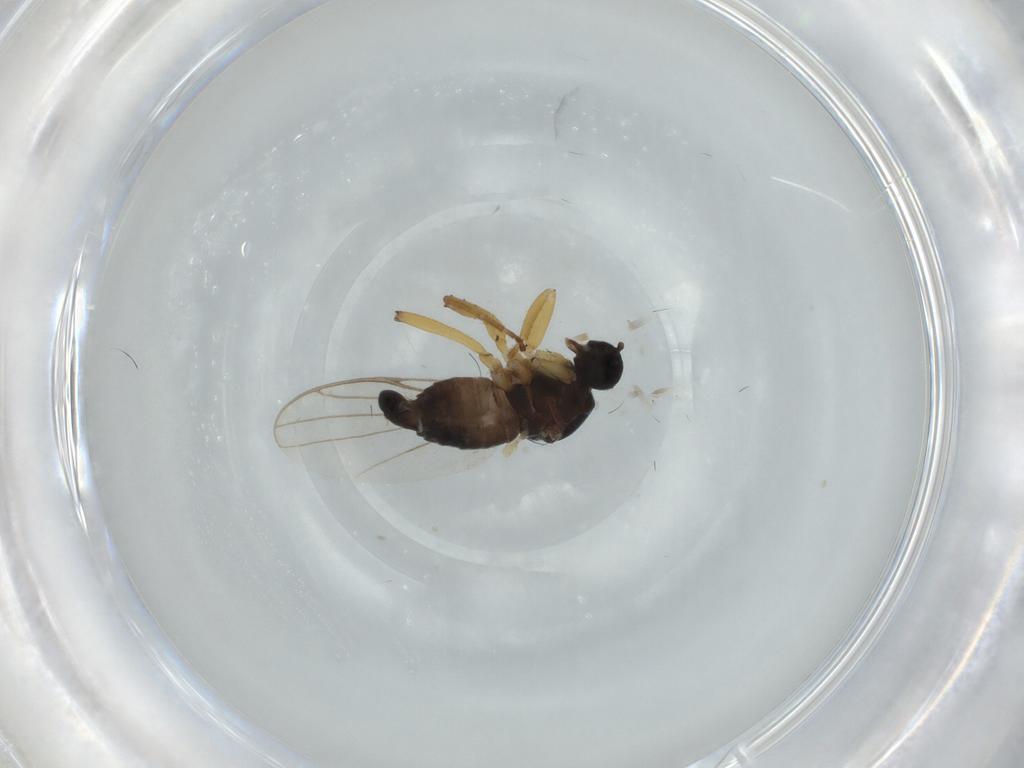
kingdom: Animalia
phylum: Arthropoda
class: Insecta
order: Diptera
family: Hybotidae
